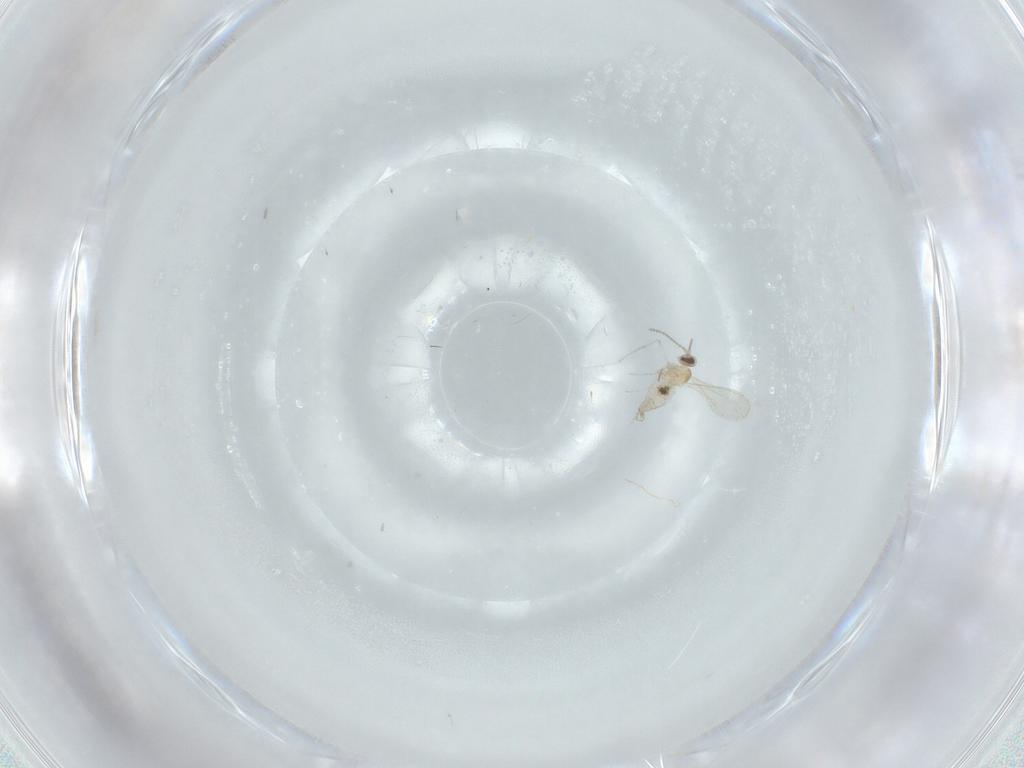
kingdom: Animalia
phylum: Arthropoda
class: Insecta
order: Diptera
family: Cecidomyiidae
